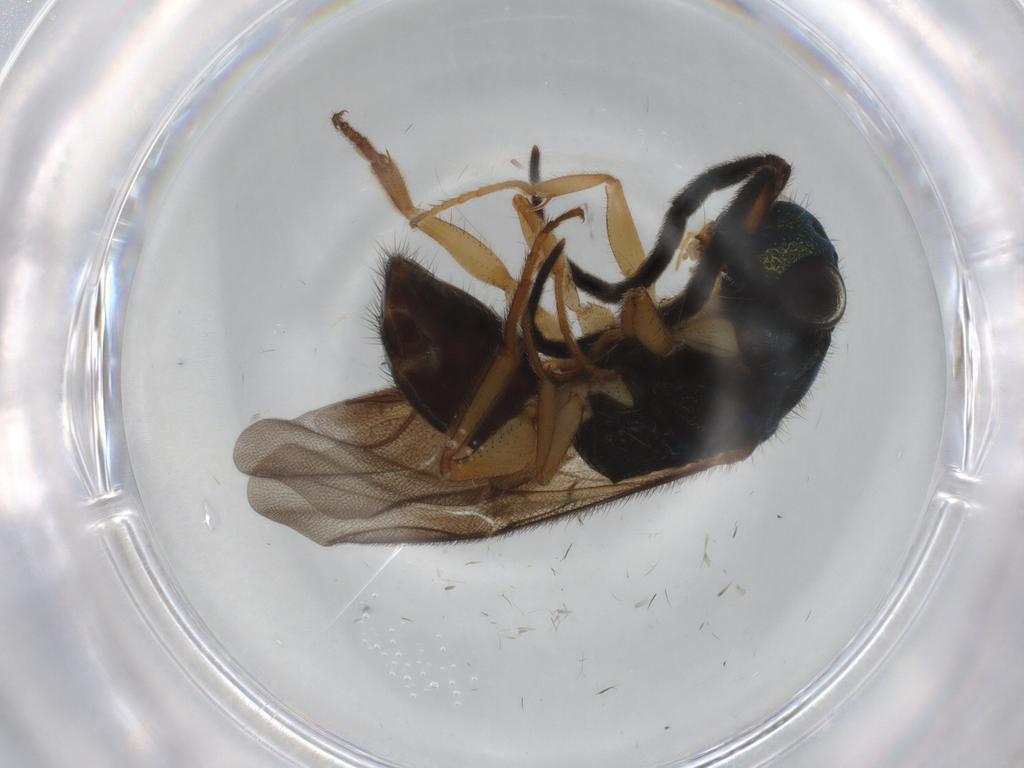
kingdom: Animalia
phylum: Arthropoda
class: Insecta
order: Hymenoptera
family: Chrysididae
